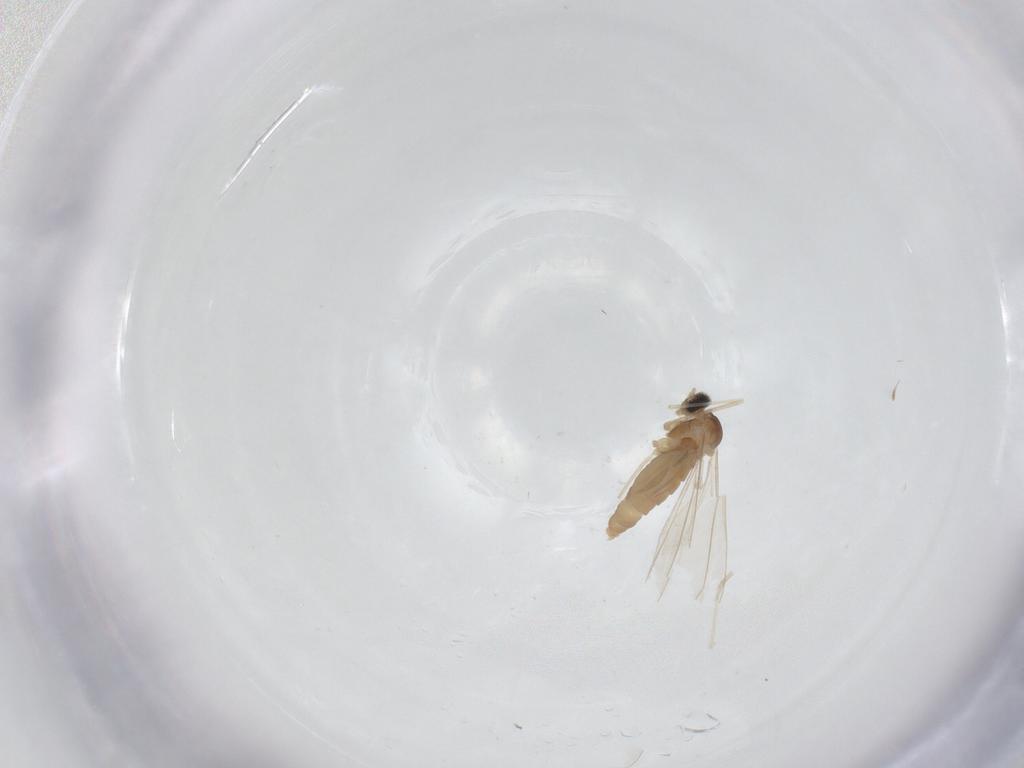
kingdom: Animalia
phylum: Arthropoda
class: Insecta
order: Diptera
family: Cecidomyiidae
